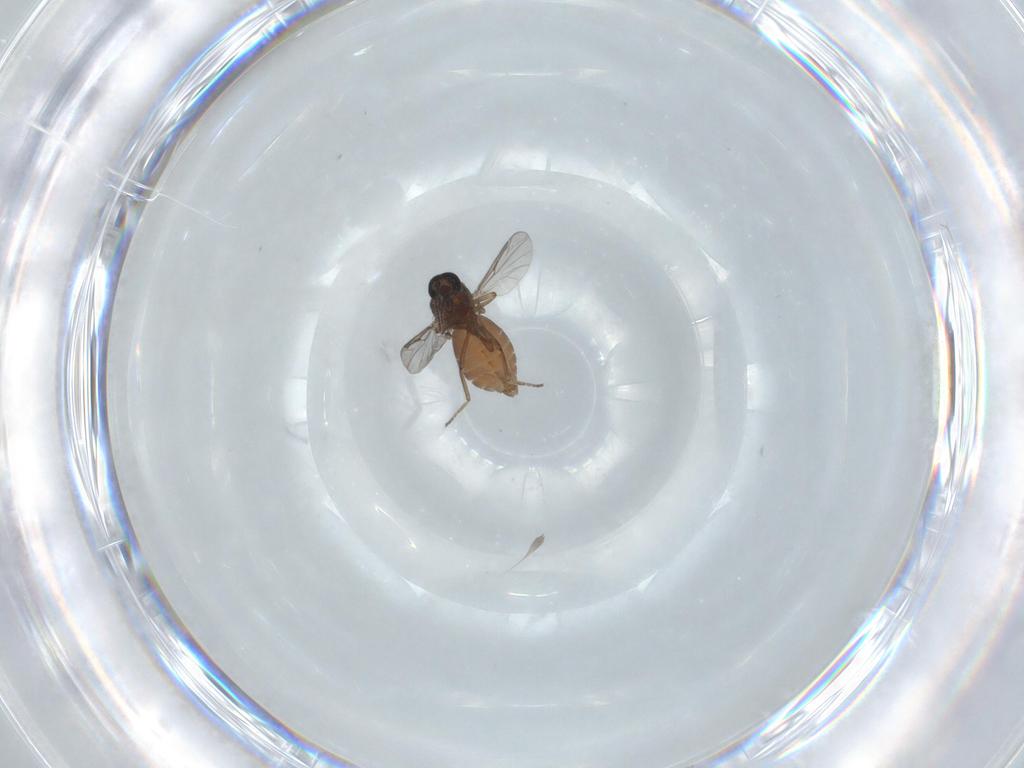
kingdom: Animalia
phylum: Arthropoda
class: Insecta
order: Diptera
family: Ceratopogonidae
